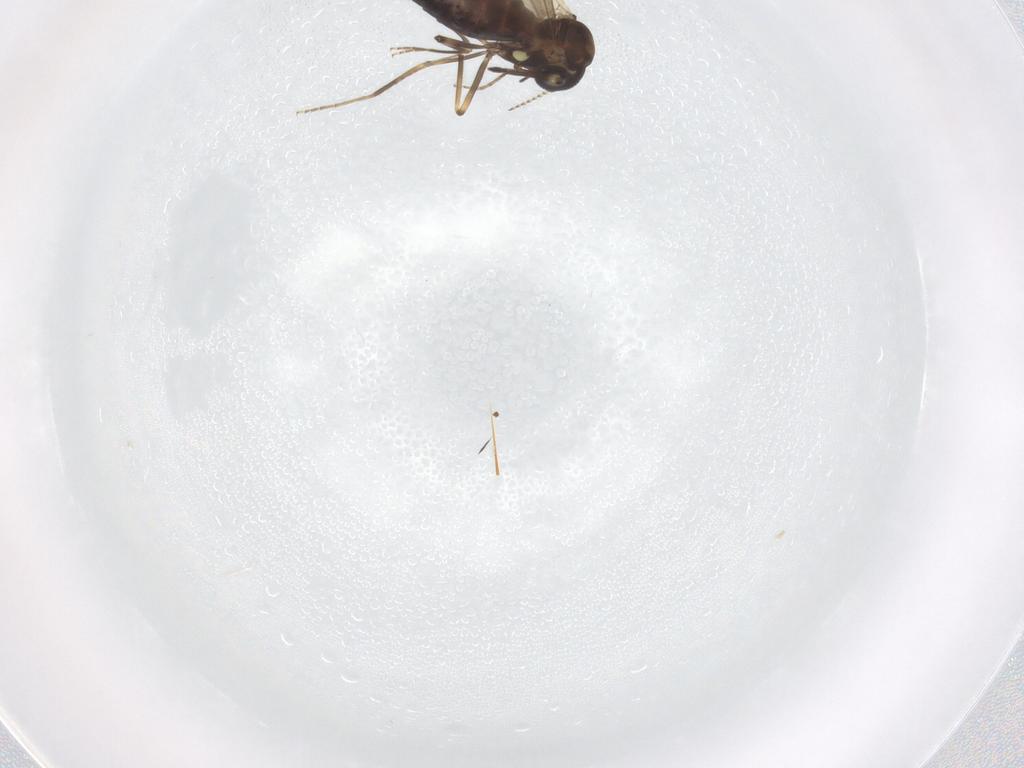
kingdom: Animalia
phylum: Arthropoda
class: Insecta
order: Diptera
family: Ceratopogonidae
